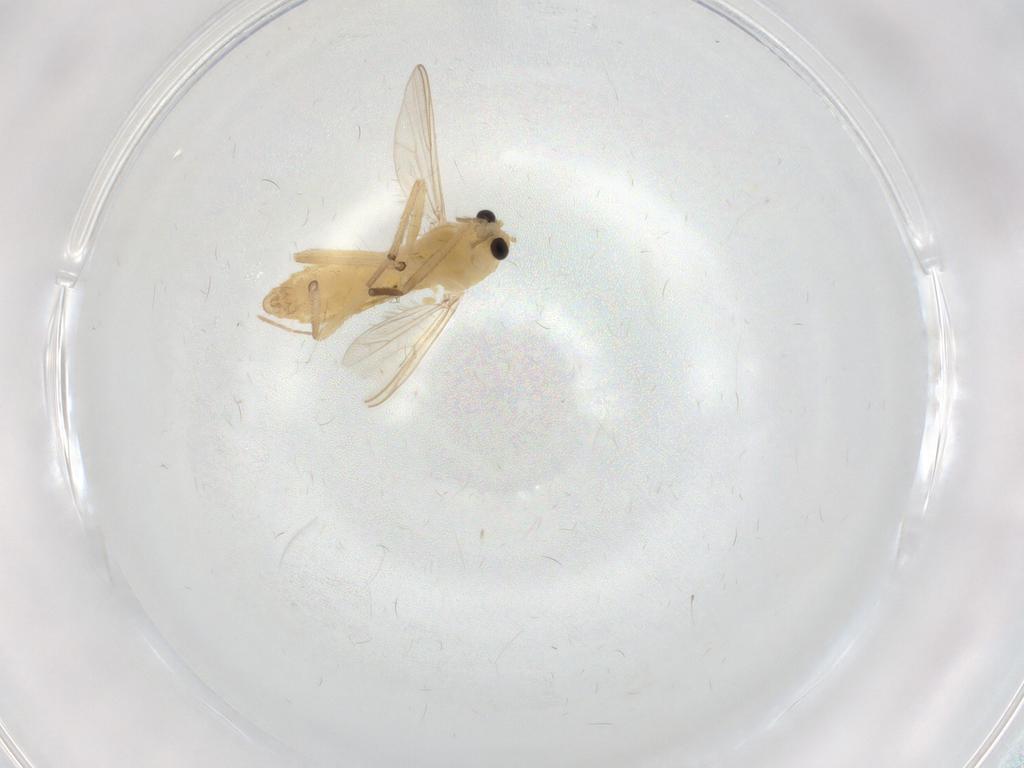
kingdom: Animalia
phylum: Arthropoda
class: Insecta
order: Diptera
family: Chironomidae
